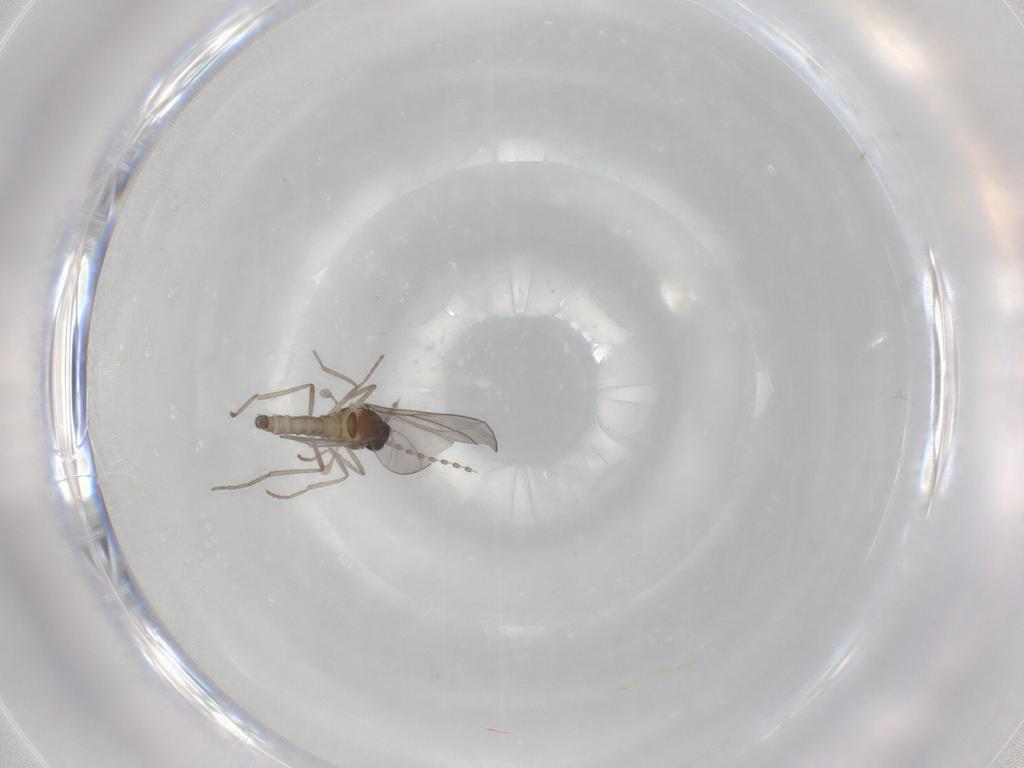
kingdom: Animalia
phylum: Arthropoda
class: Insecta
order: Diptera
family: Cecidomyiidae
